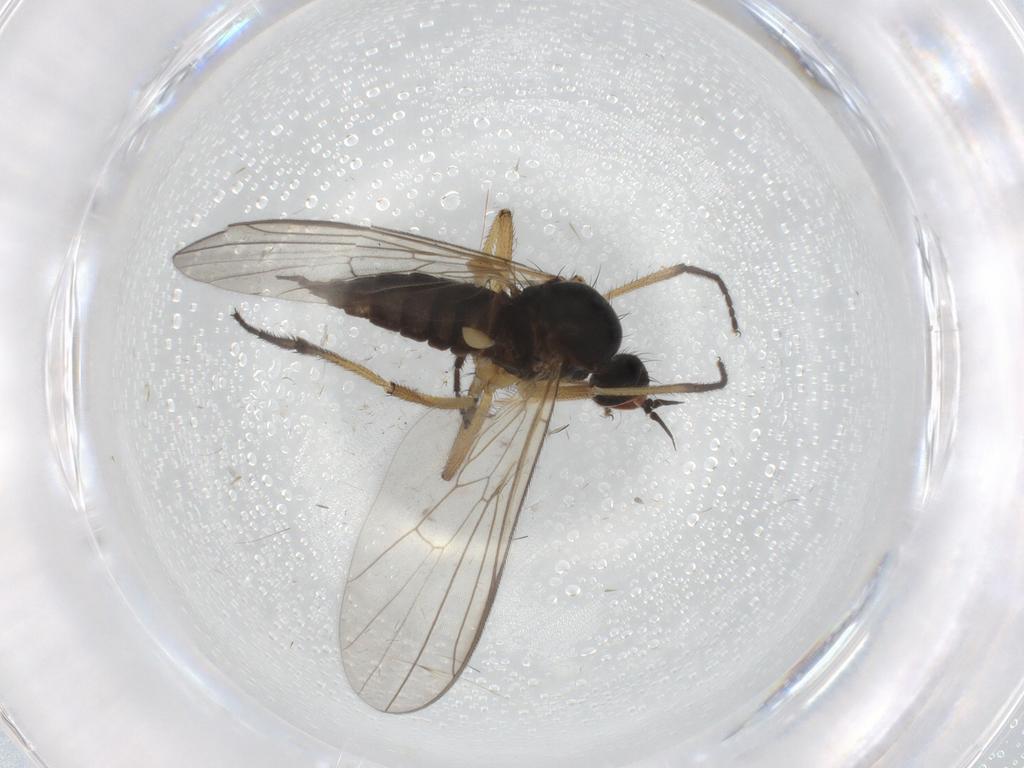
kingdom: Animalia
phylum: Arthropoda
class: Insecta
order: Diptera
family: Empididae
